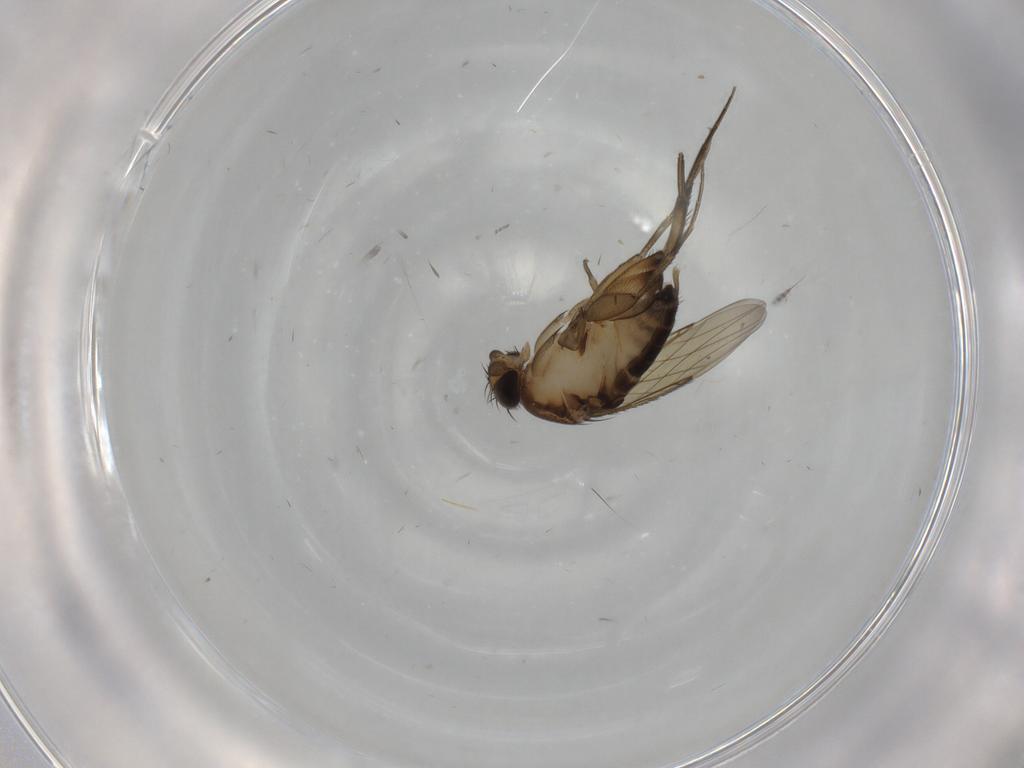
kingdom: Animalia
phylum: Arthropoda
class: Insecta
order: Diptera
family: Phoridae
